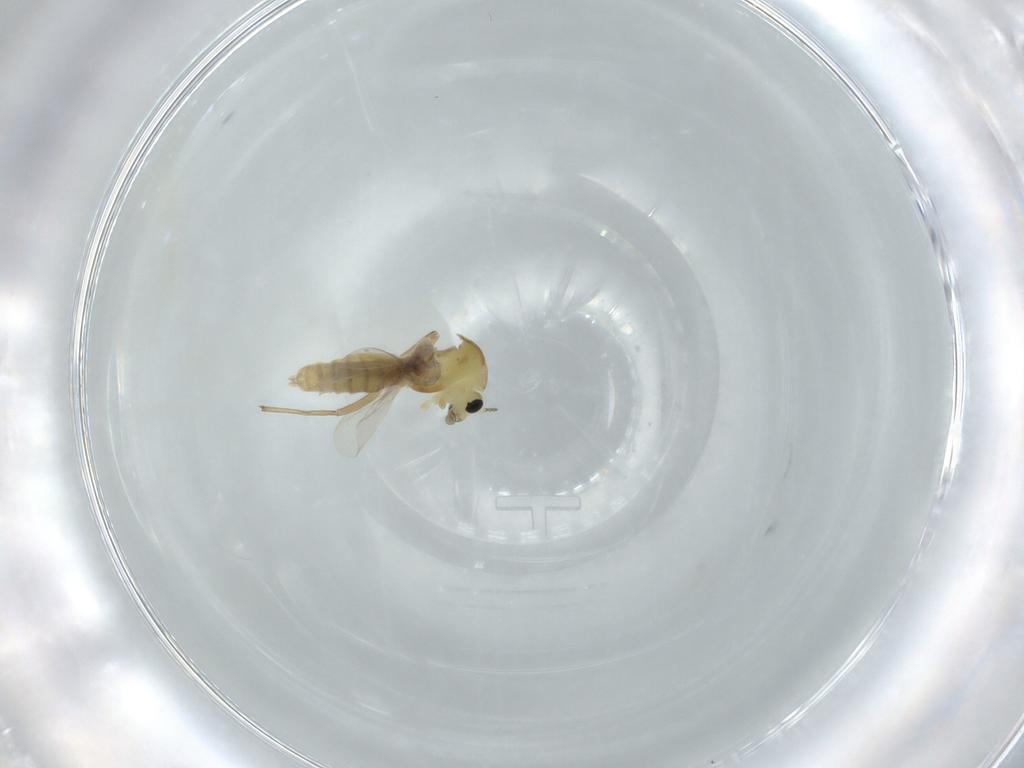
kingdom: Animalia
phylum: Arthropoda
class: Insecta
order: Diptera
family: Chironomidae
